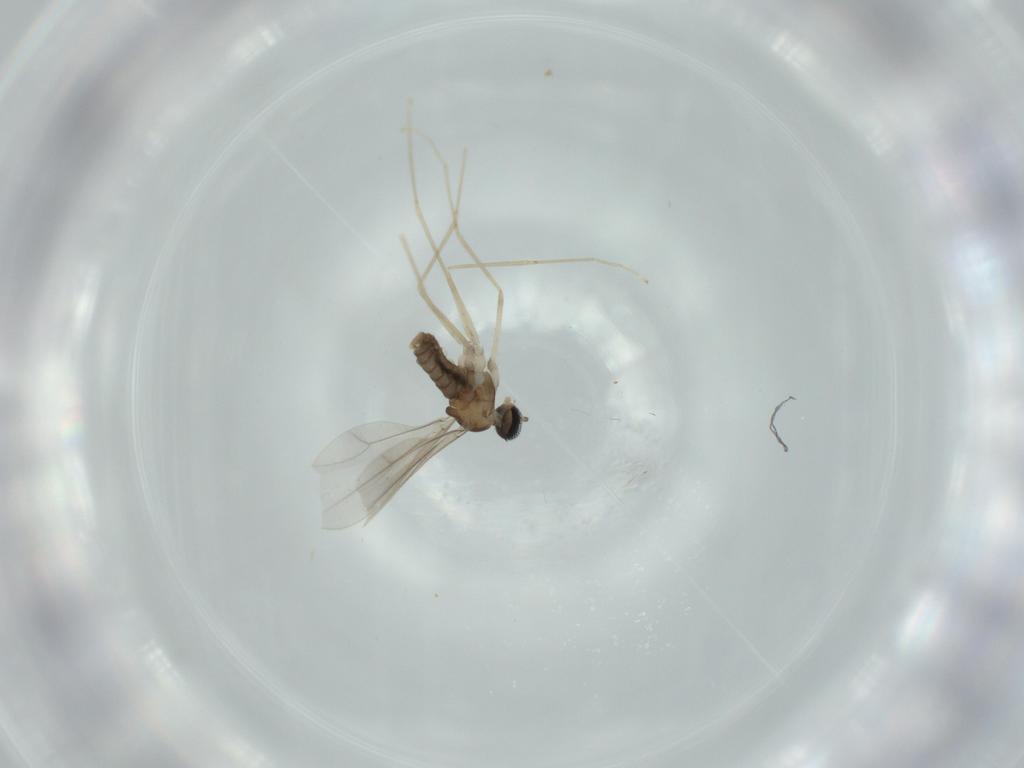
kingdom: Animalia
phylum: Arthropoda
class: Insecta
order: Diptera
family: Cecidomyiidae
